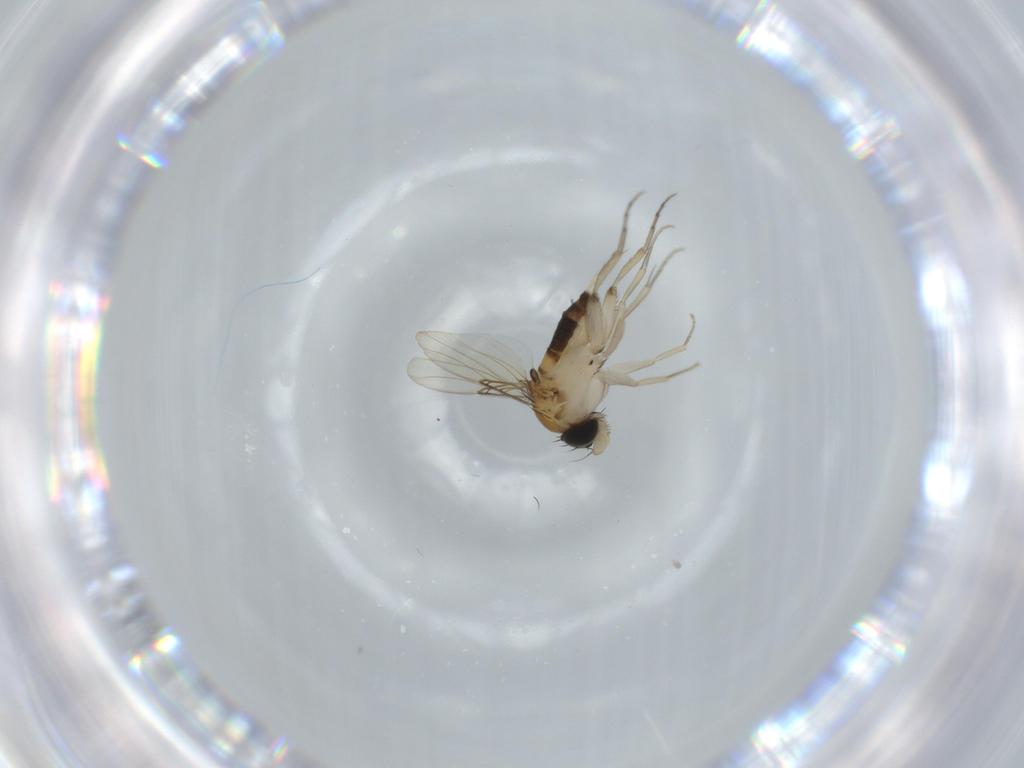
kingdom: Animalia
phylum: Arthropoda
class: Insecta
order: Diptera
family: Phoridae
